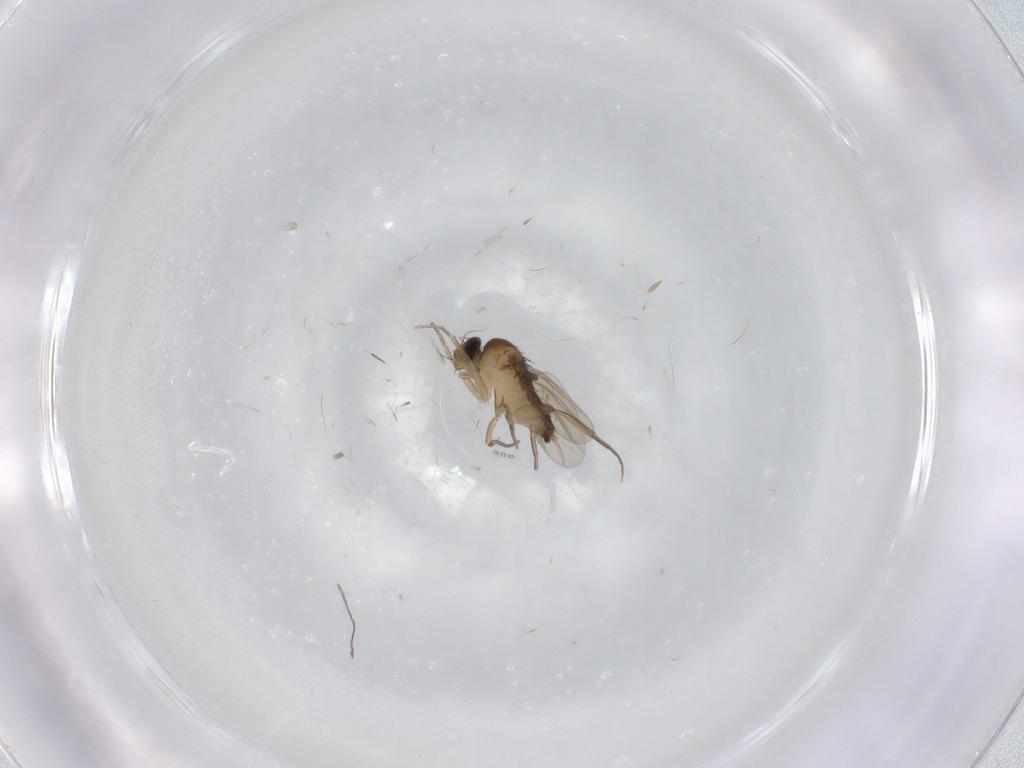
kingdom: Animalia
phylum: Arthropoda
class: Insecta
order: Diptera
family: Phoridae
